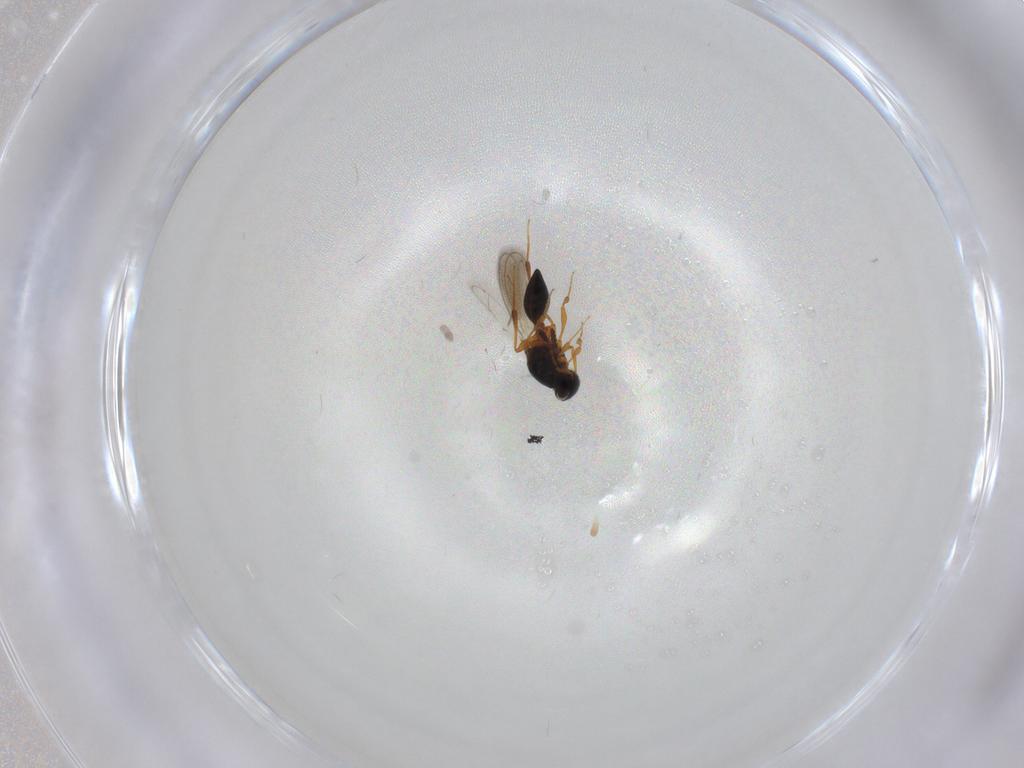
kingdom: Animalia
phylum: Arthropoda
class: Insecta
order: Hymenoptera
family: Platygastridae
